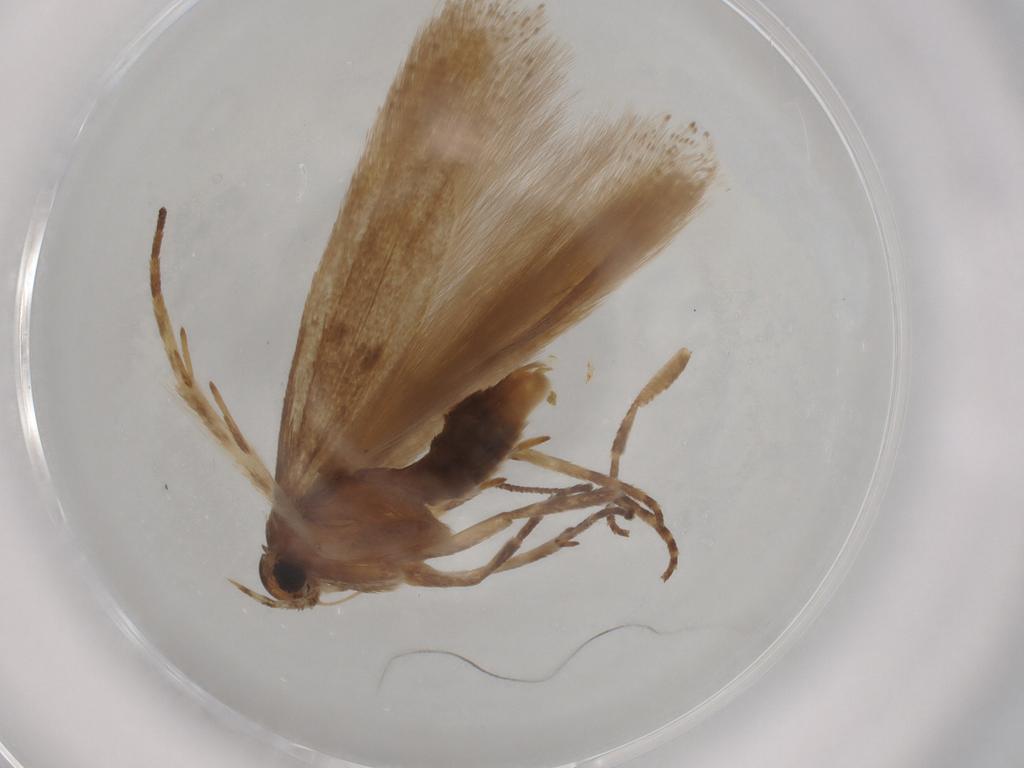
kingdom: Animalia
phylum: Arthropoda
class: Insecta
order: Lepidoptera
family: Gelechiidae
